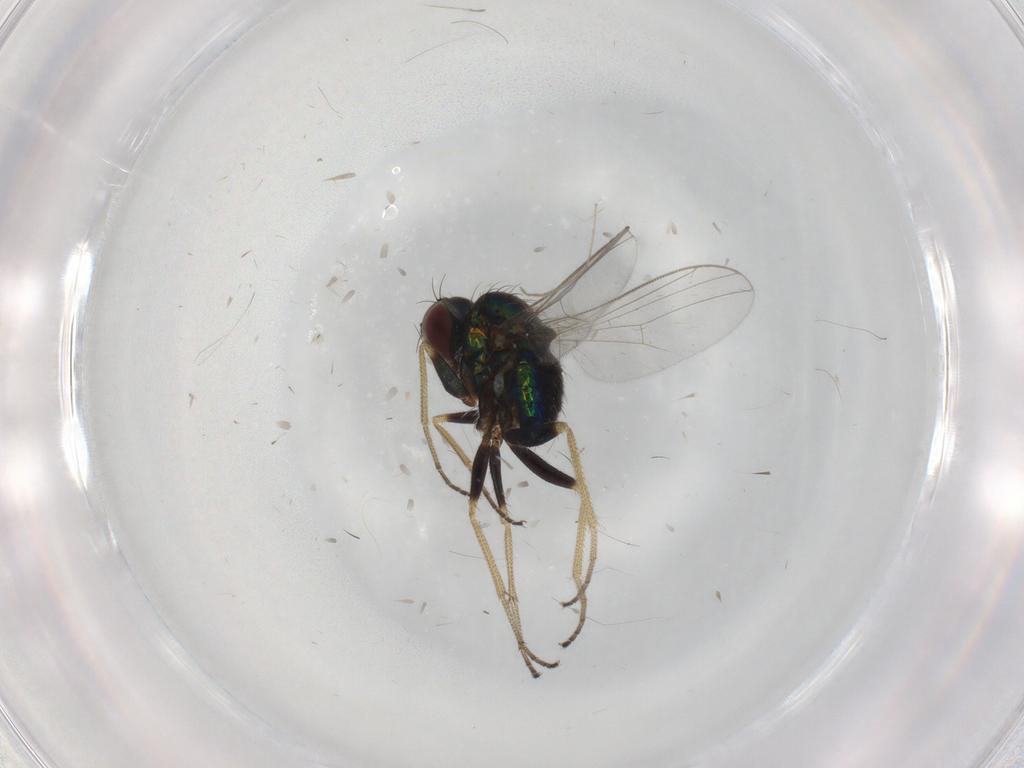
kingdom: Animalia
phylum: Arthropoda
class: Insecta
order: Diptera
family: Dolichopodidae
